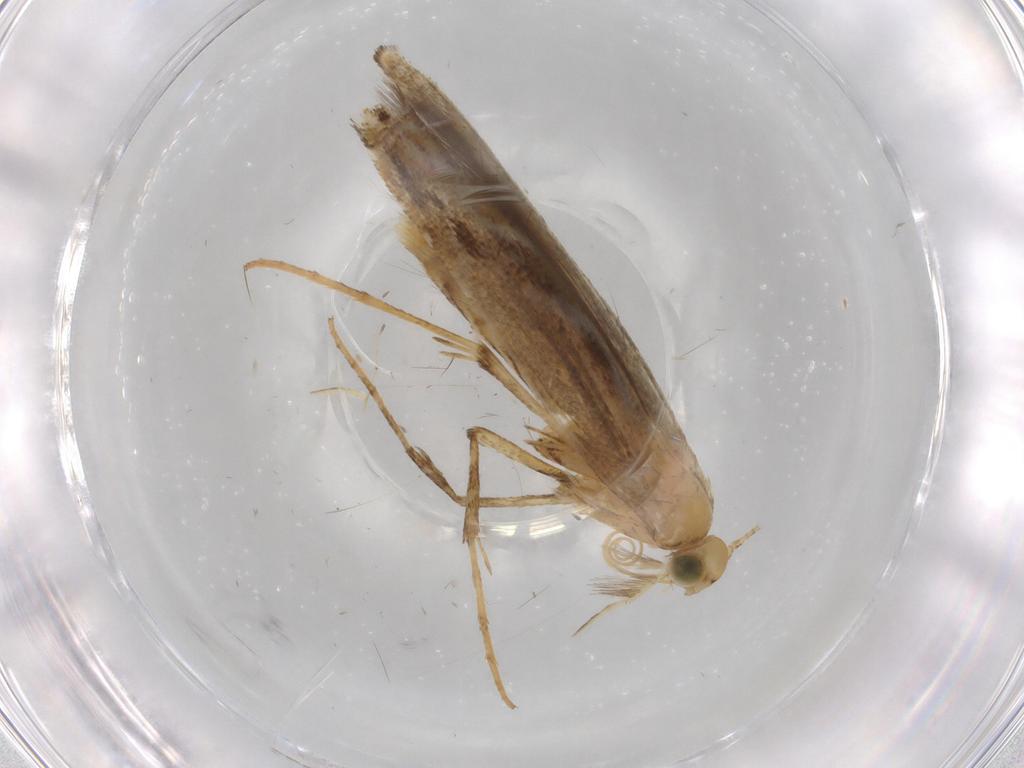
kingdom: Animalia
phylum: Arthropoda
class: Insecta
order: Lepidoptera
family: Gracillariidae
